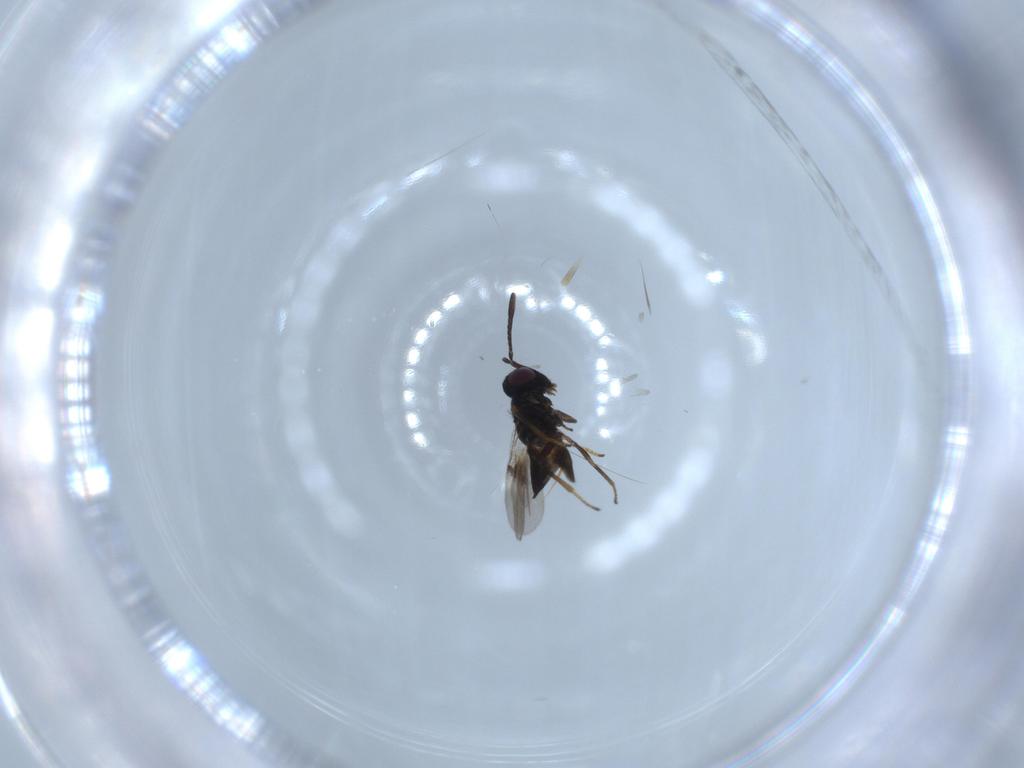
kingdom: Animalia
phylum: Arthropoda
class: Insecta
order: Hymenoptera
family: Encyrtidae
